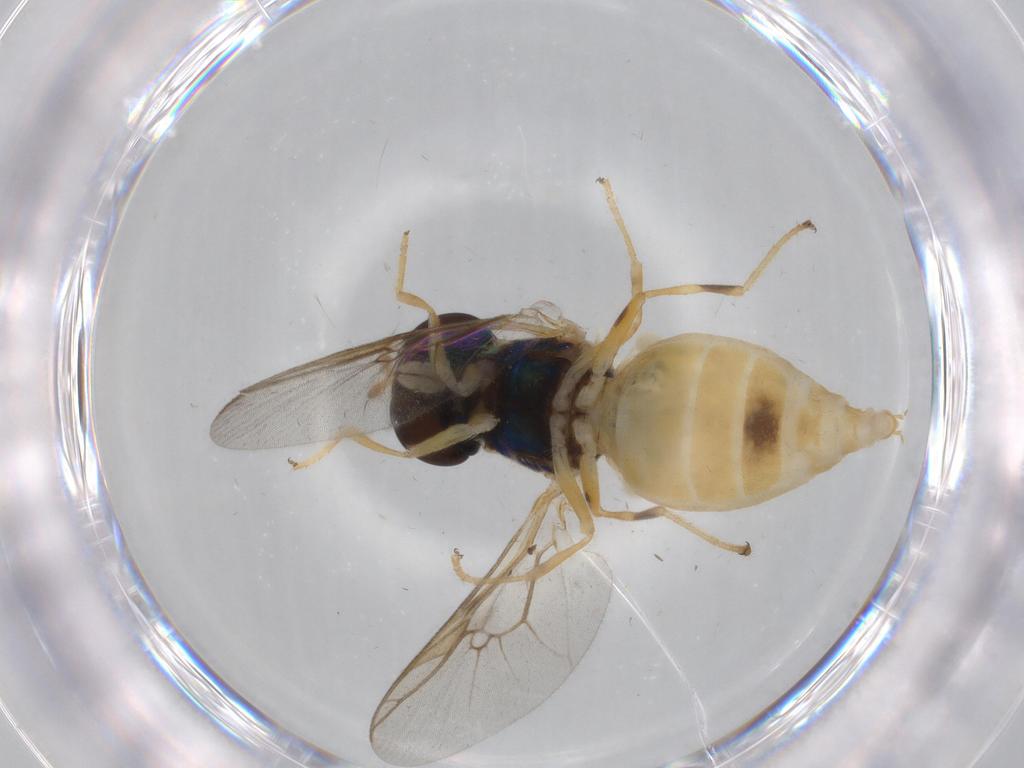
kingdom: Animalia
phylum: Arthropoda
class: Insecta
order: Diptera
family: Cecidomyiidae
